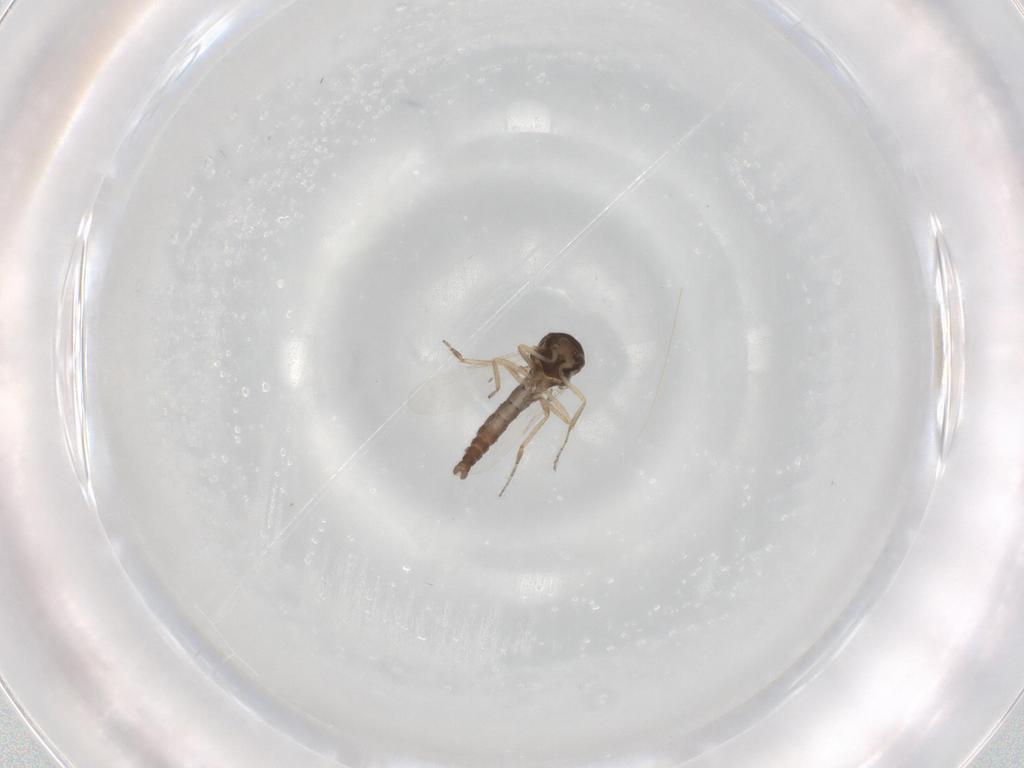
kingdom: Animalia
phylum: Arthropoda
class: Insecta
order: Diptera
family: Ceratopogonidae
